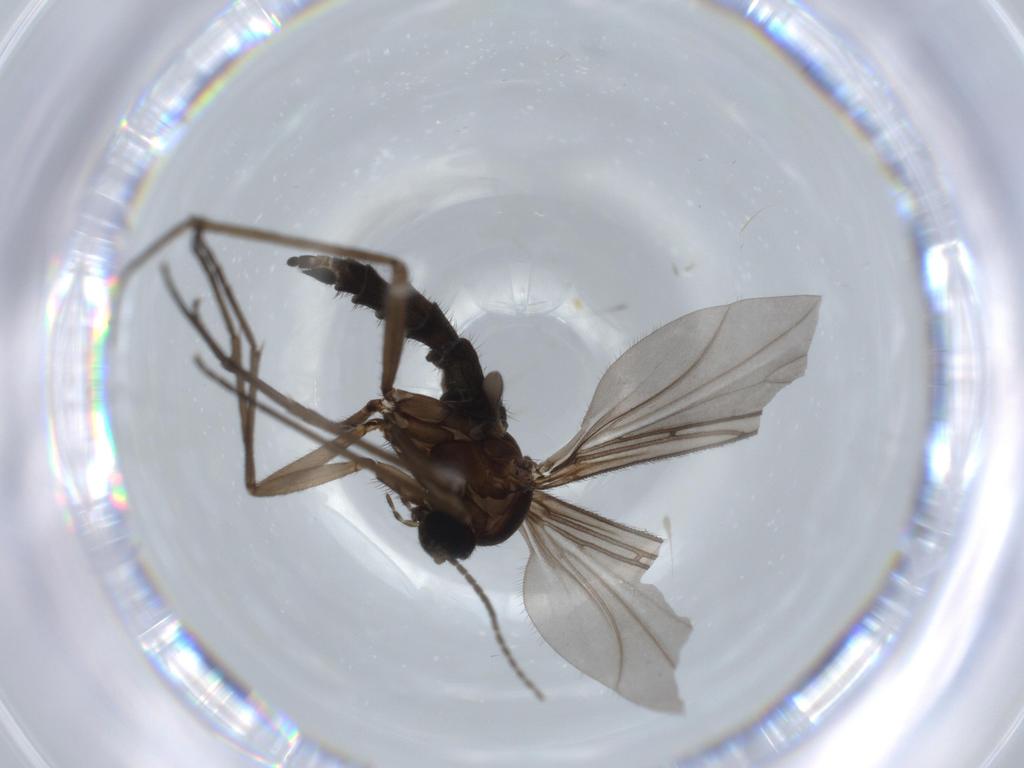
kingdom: Animalia
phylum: Arthropoda
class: Insecta
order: Diptera
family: Sciaridae
